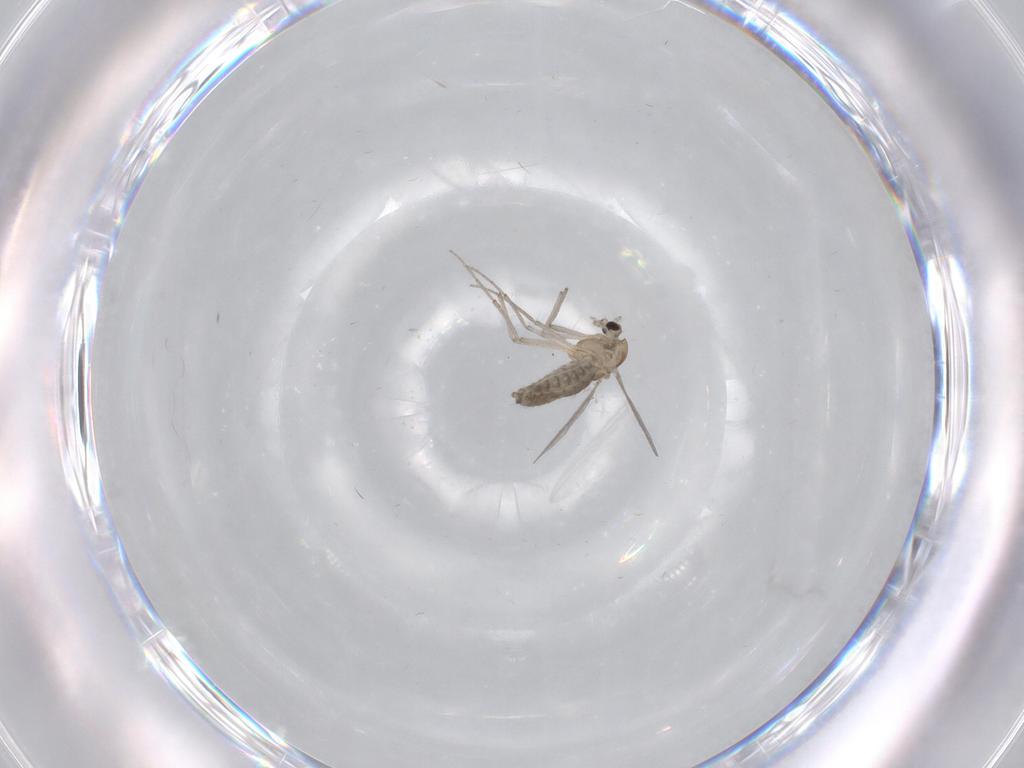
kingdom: Animalia
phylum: Arthropoda
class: Insecta
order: Diptera
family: Chironomidae
